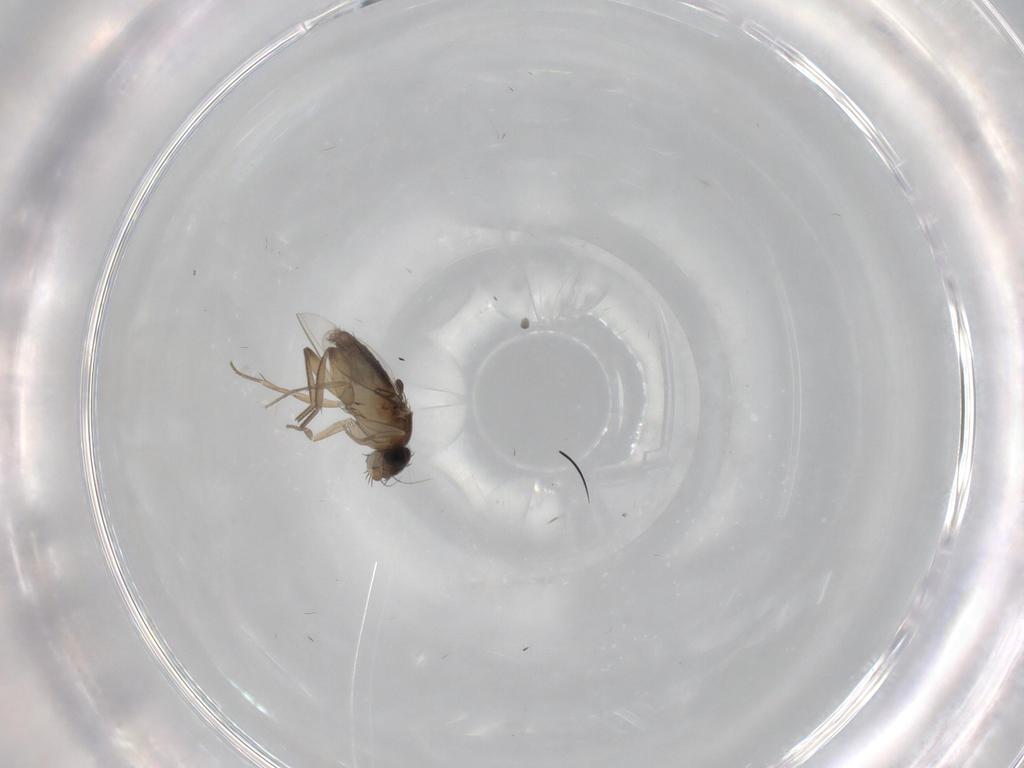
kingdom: Animalia
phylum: Arthropoda
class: Insecta
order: Diptera
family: Phoridae
